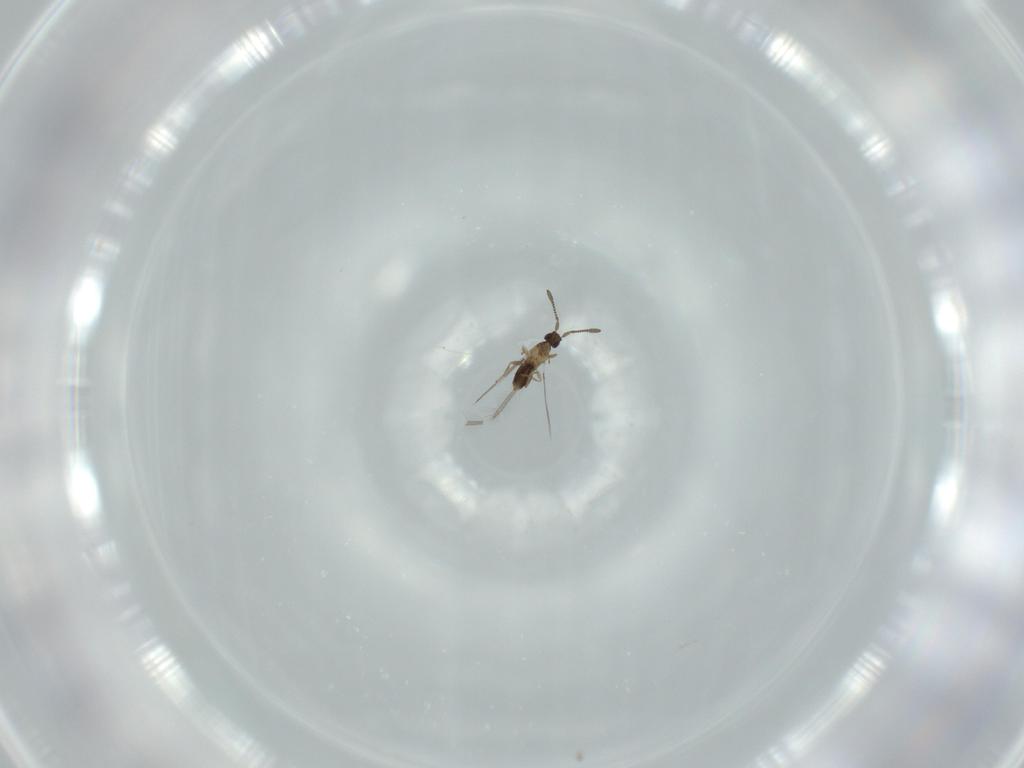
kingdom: Animalia
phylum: Arthropoda
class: Insecta
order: Hymenoptera
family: Mymaridae
